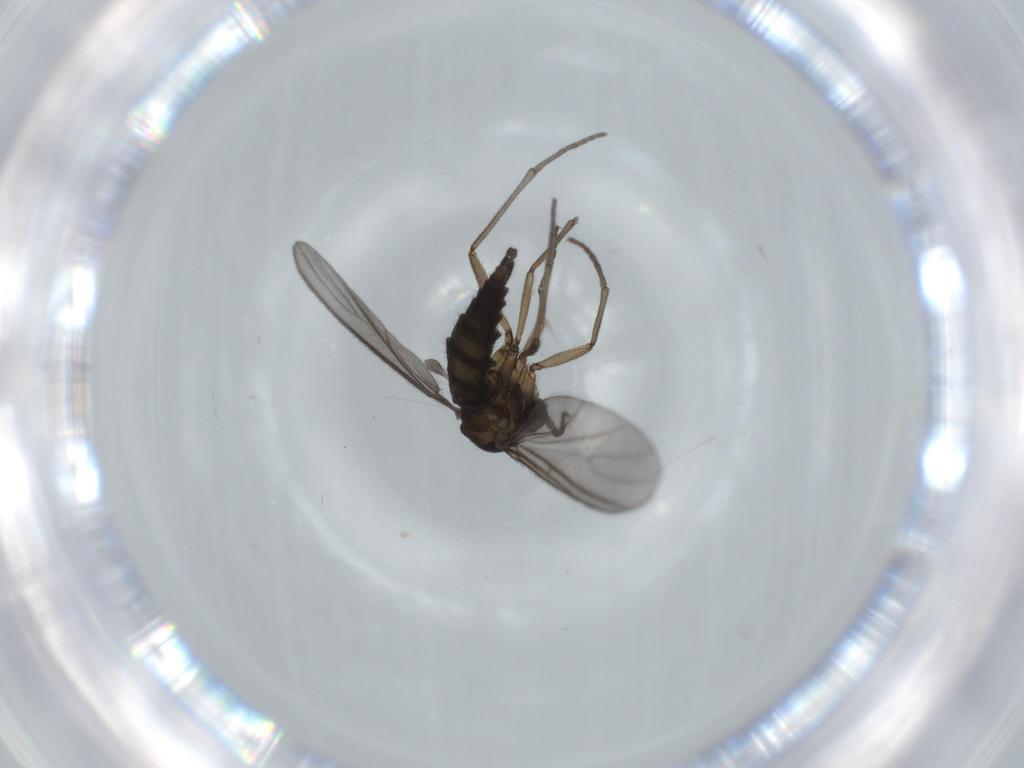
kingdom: Animalia
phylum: Arthropoda
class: Insecta
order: Diptera
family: Sciaridae
